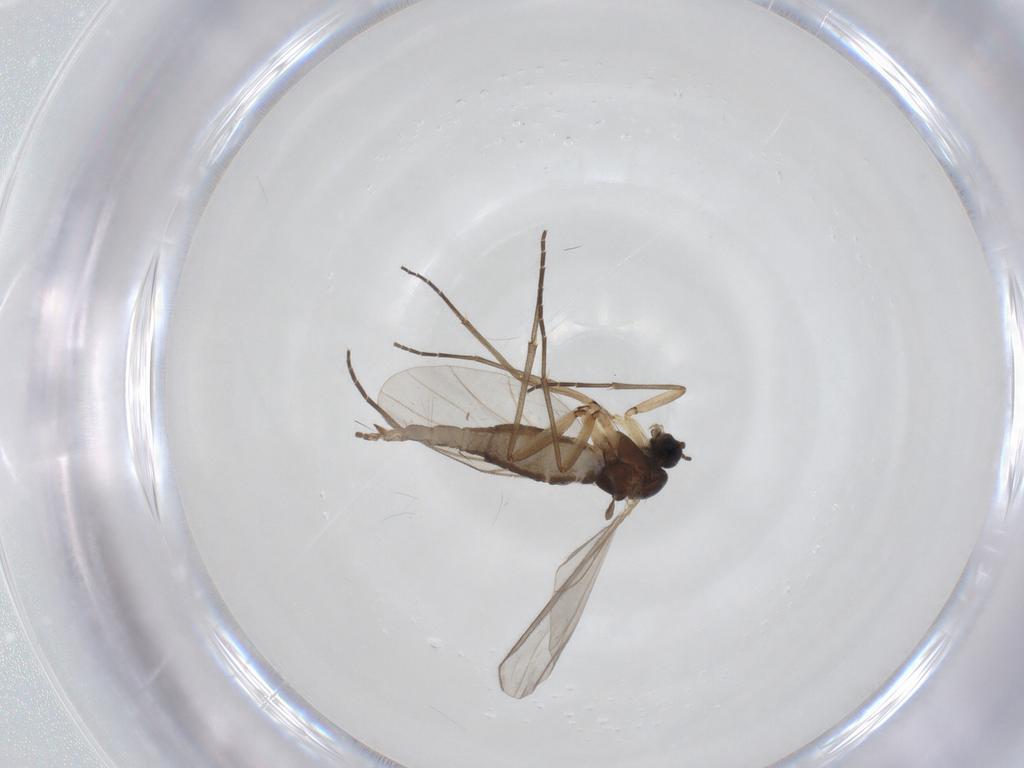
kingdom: Animalia
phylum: Arthropoda
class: Insecta
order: Diptera
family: Sciaridae
